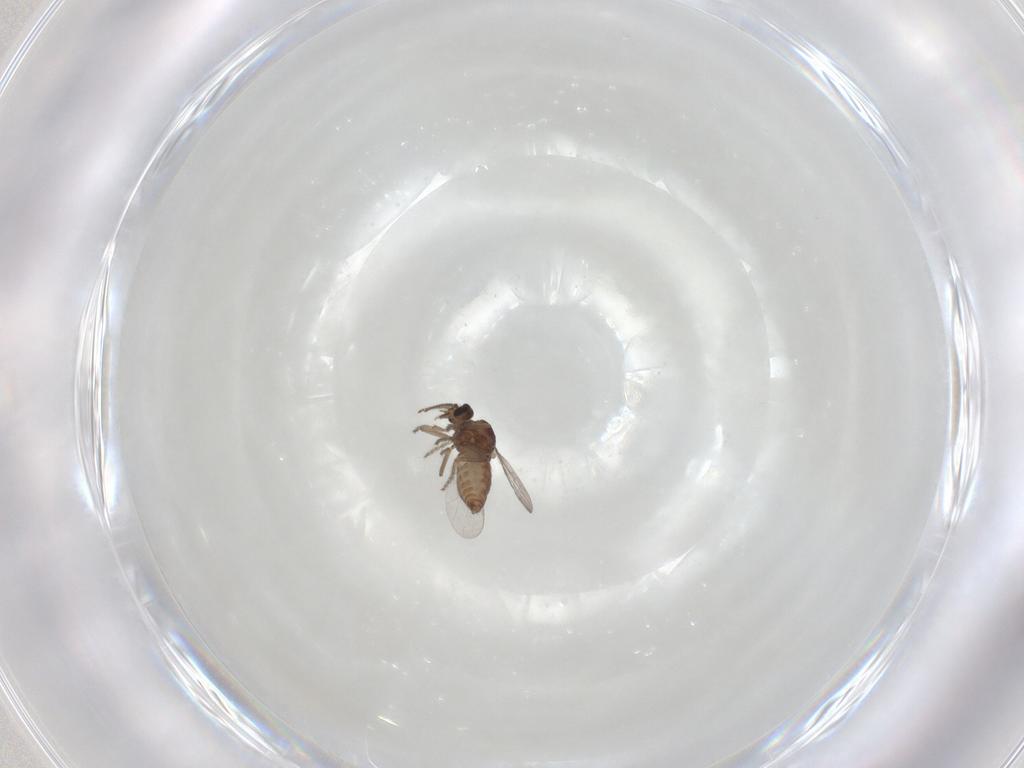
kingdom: Animalia
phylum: Arthropoda
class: Insecta
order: Diptera
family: Ceratopogonidae
